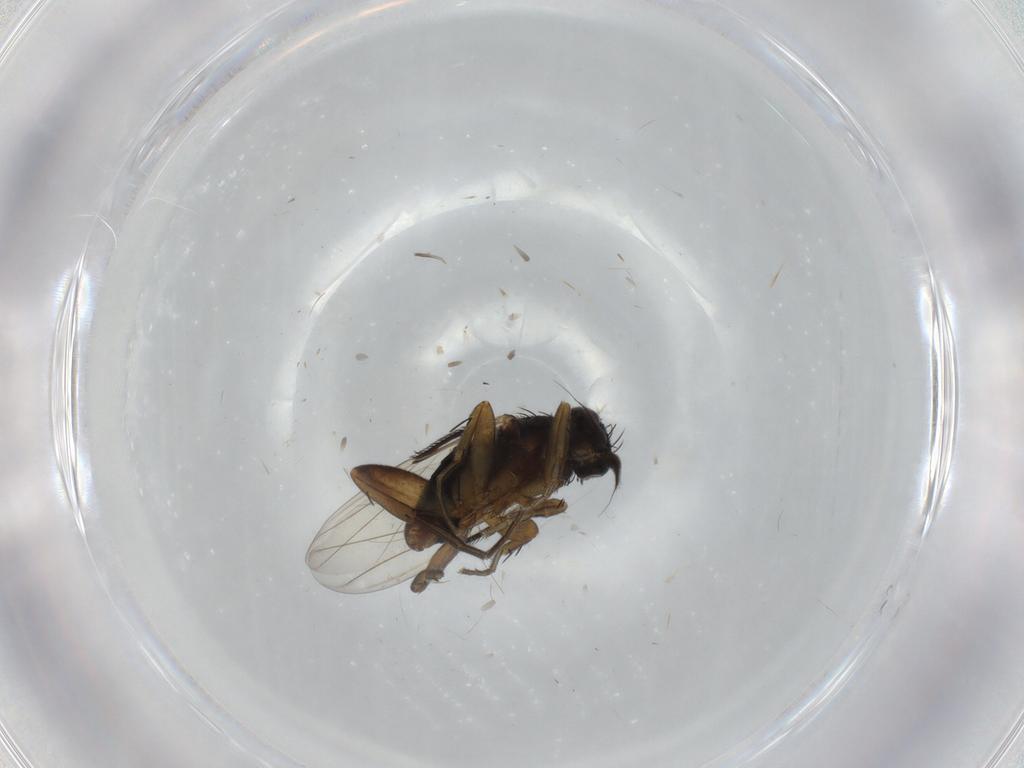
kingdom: Animalia
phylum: Arthropoda
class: Insecta
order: Diptera
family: Phoridae
